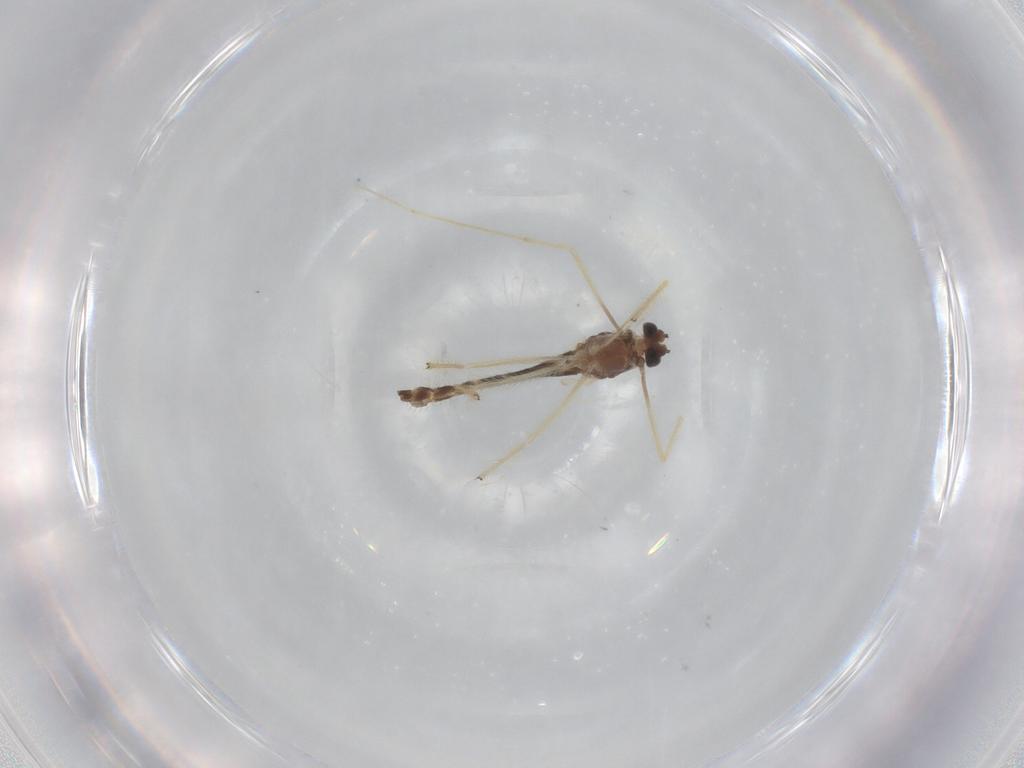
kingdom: Animalia
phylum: Arthropoda
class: Insecta
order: Diptera
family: Chironomidae
